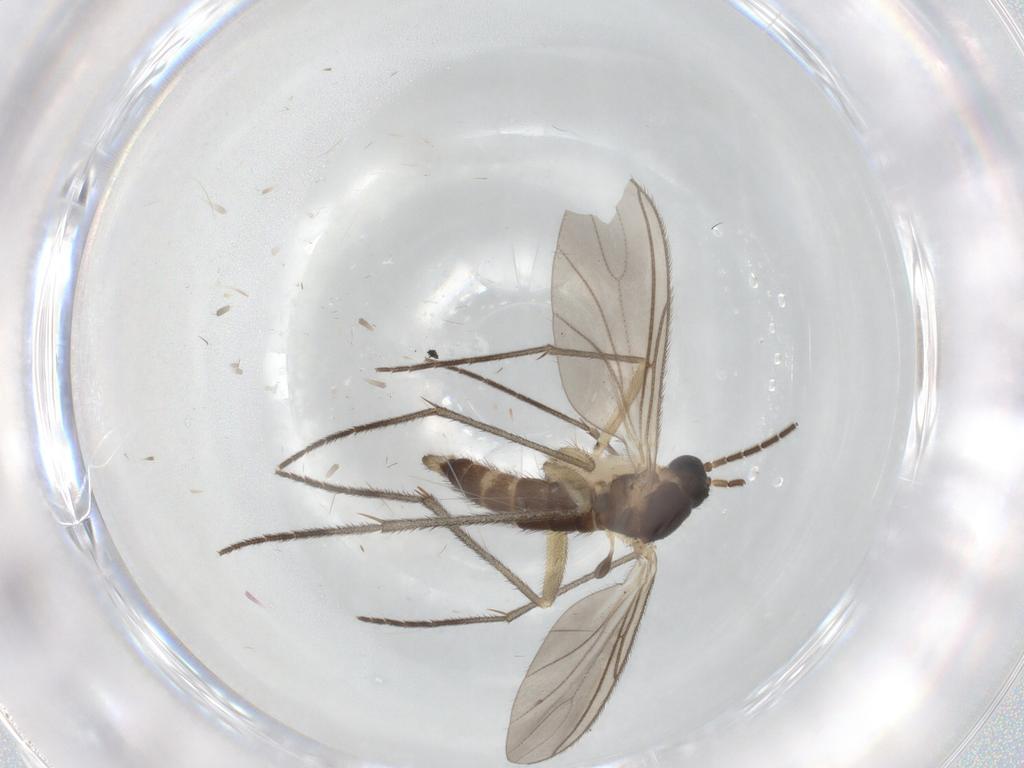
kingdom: Animalia
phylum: Arthropoda
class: Insecta
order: Diptera
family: Sciaridae
